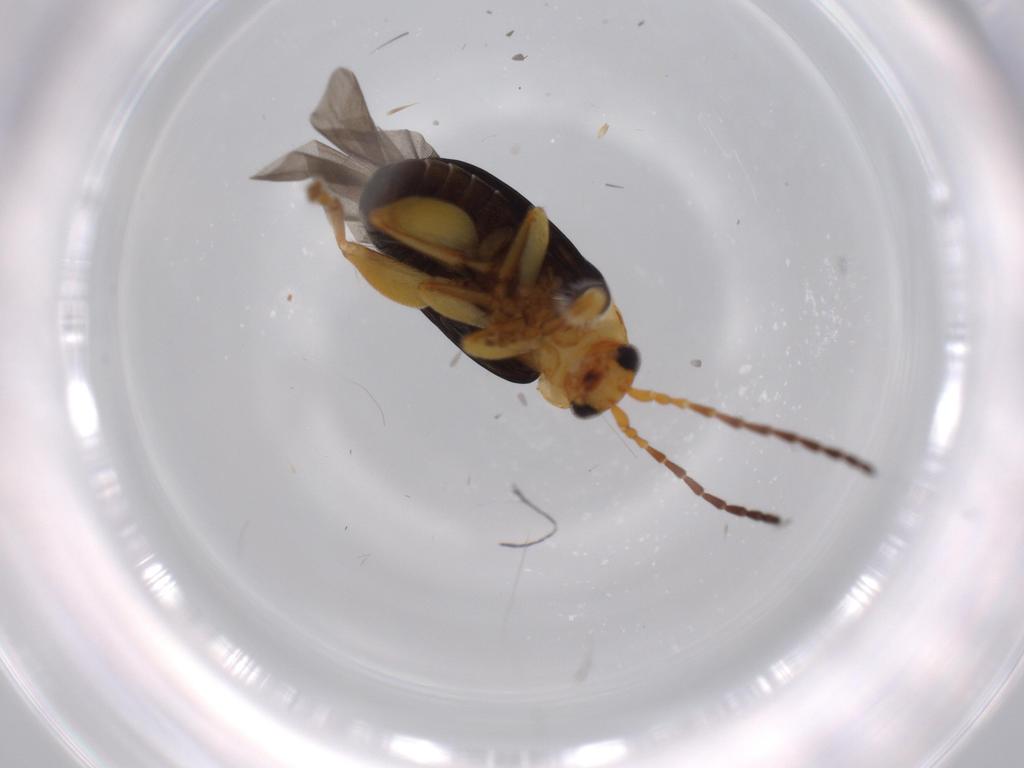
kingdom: Animalia
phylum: Arthropoda
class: Insecta
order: Coleoptera
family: Chrysomelidae
